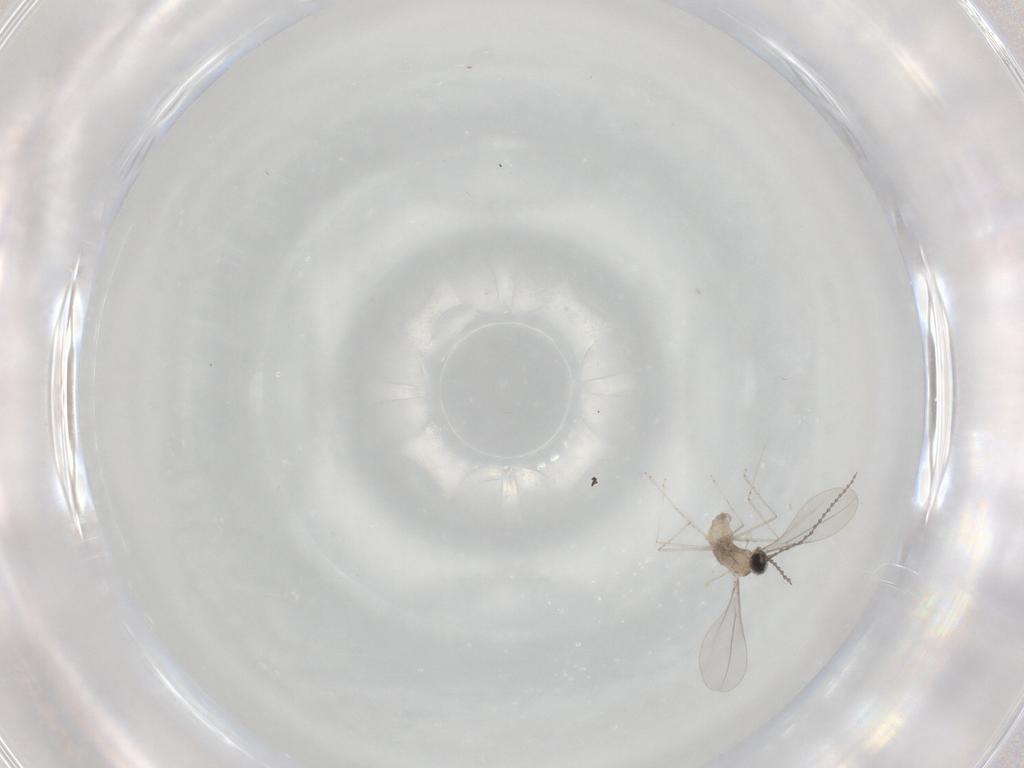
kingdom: Animalia
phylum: Arthropoda
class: Insecta
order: Diptera
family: Cecidomyiidae
